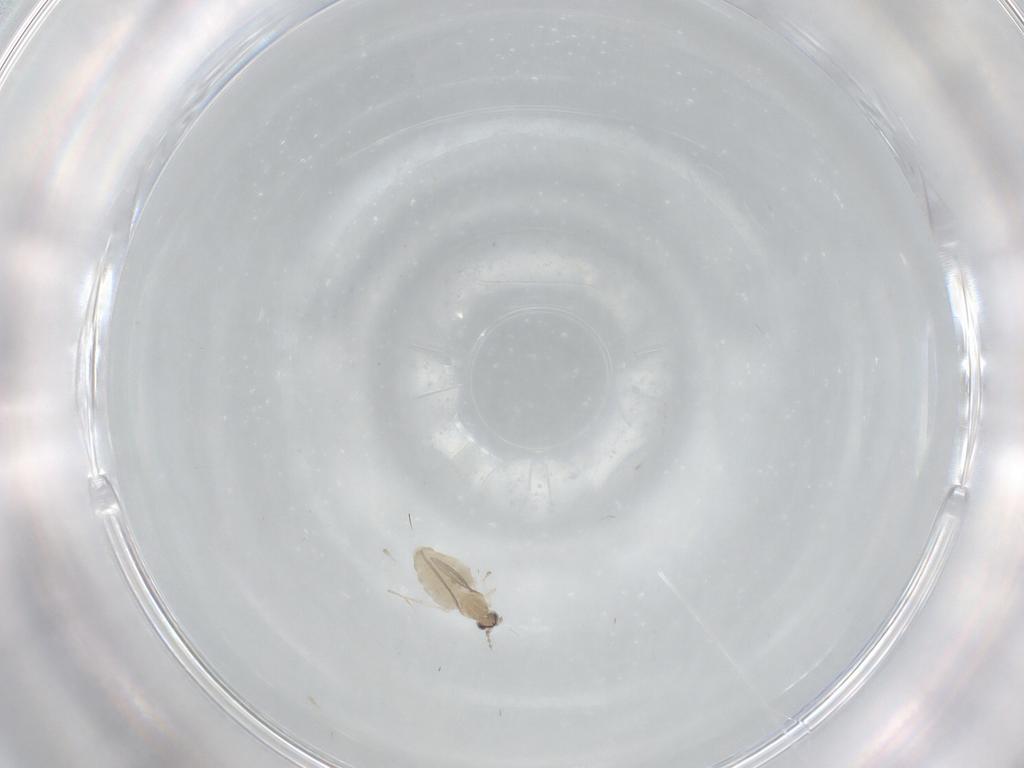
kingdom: Animalia
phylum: Arthropoda
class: Insecta
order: Diptera
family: Cecidomyiidae
